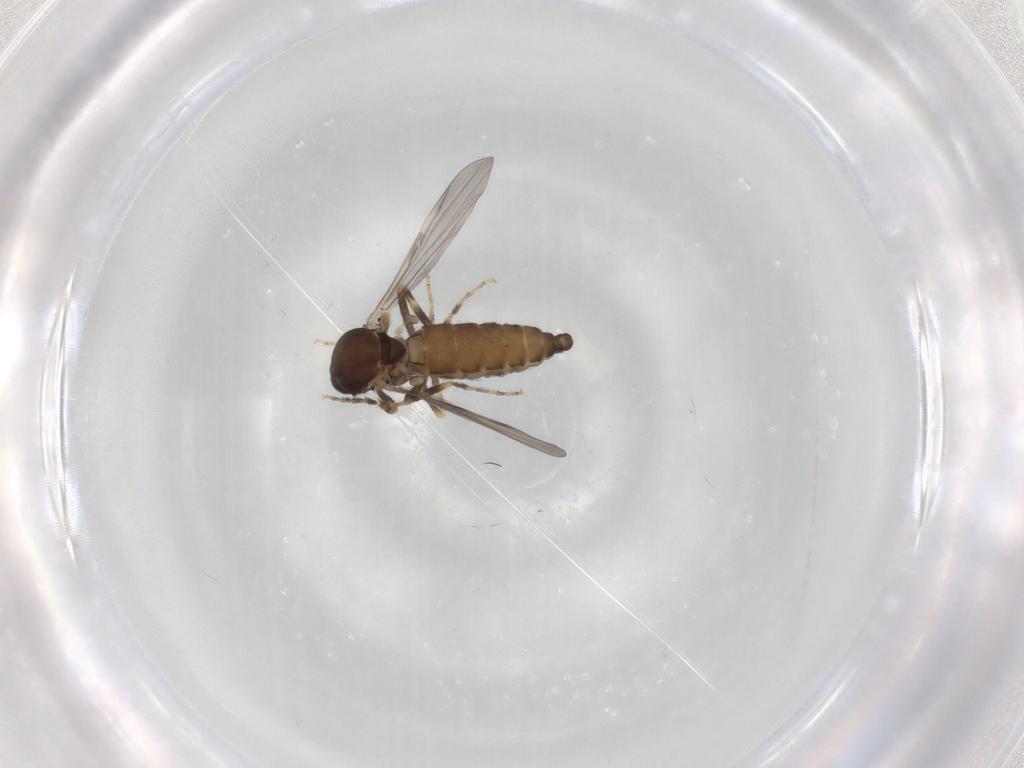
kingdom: Animalia
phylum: Arthropoda
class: Insecta
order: Diptera
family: Ceratopogonidae
